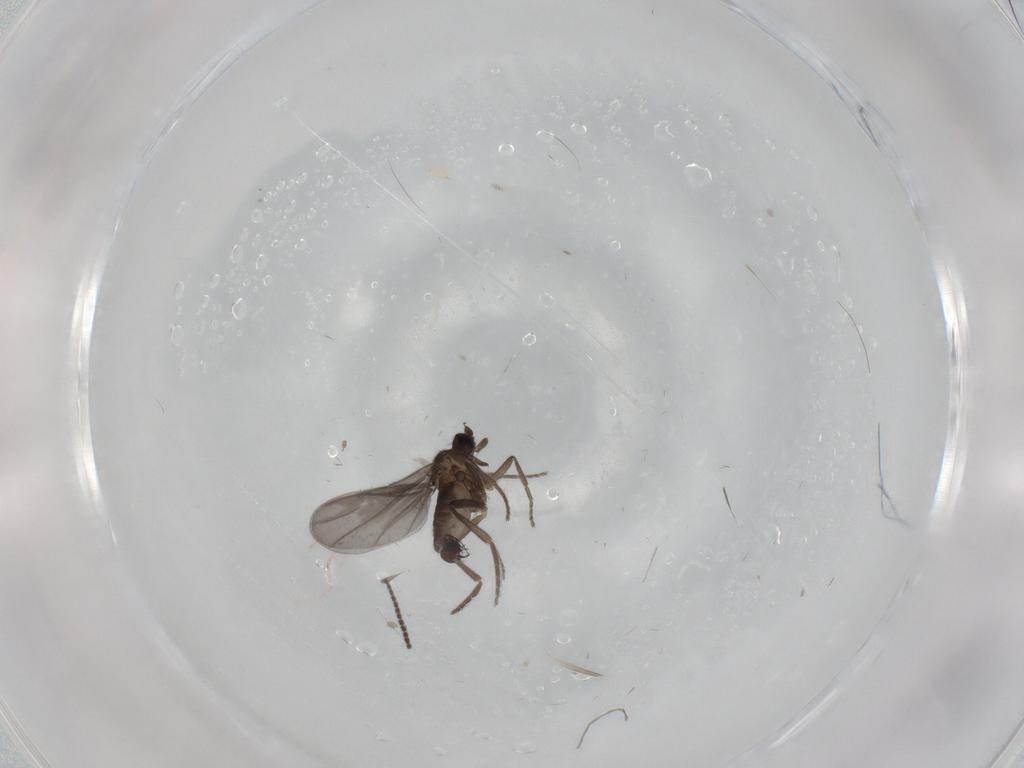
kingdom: Animalia
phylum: Arthropoda
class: Insecta
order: Diptera
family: Phoridae
